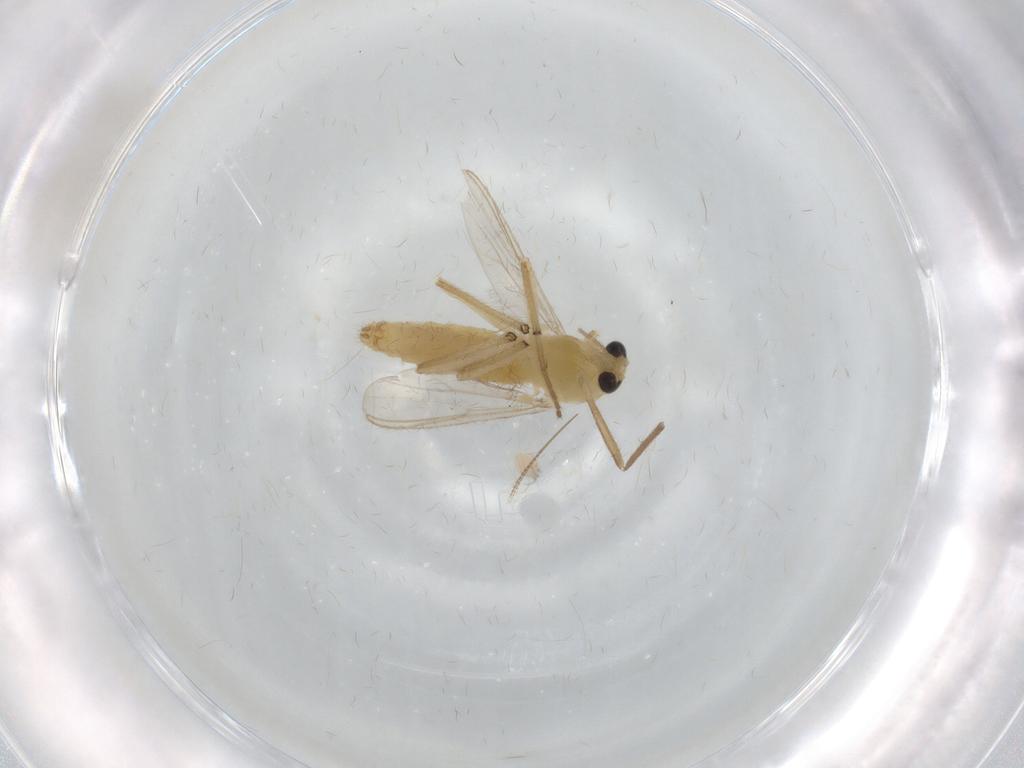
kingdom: Animalia
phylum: Arthropoda
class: Insecta
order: Diptera
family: Chironomidae
